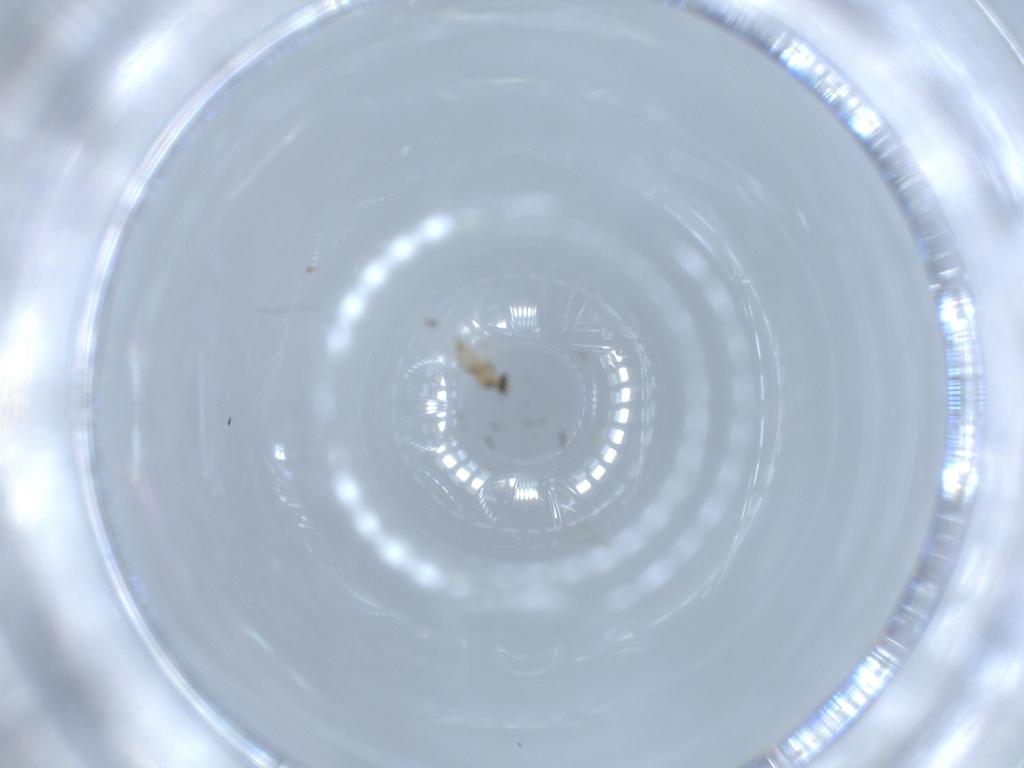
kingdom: Animalia
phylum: Arthropoda
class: Insecta
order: Diptera
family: Cecidomyiidae
